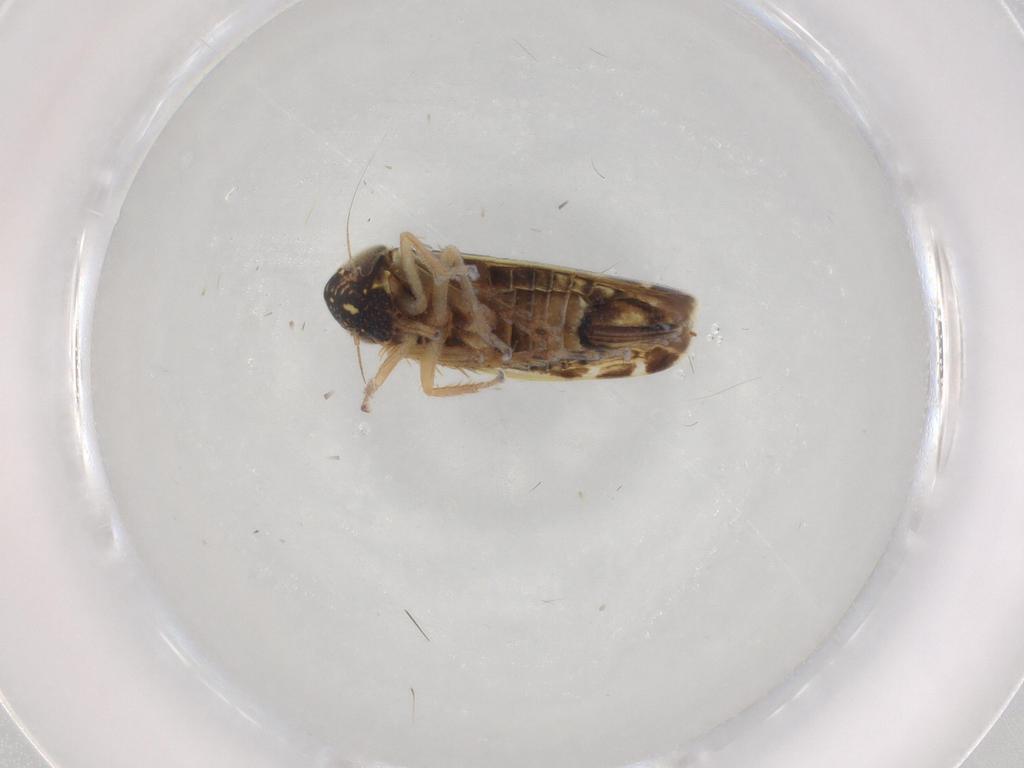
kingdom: Animalia
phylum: Arthropoda
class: Insecta
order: Hemiptera
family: Cicadellidae
